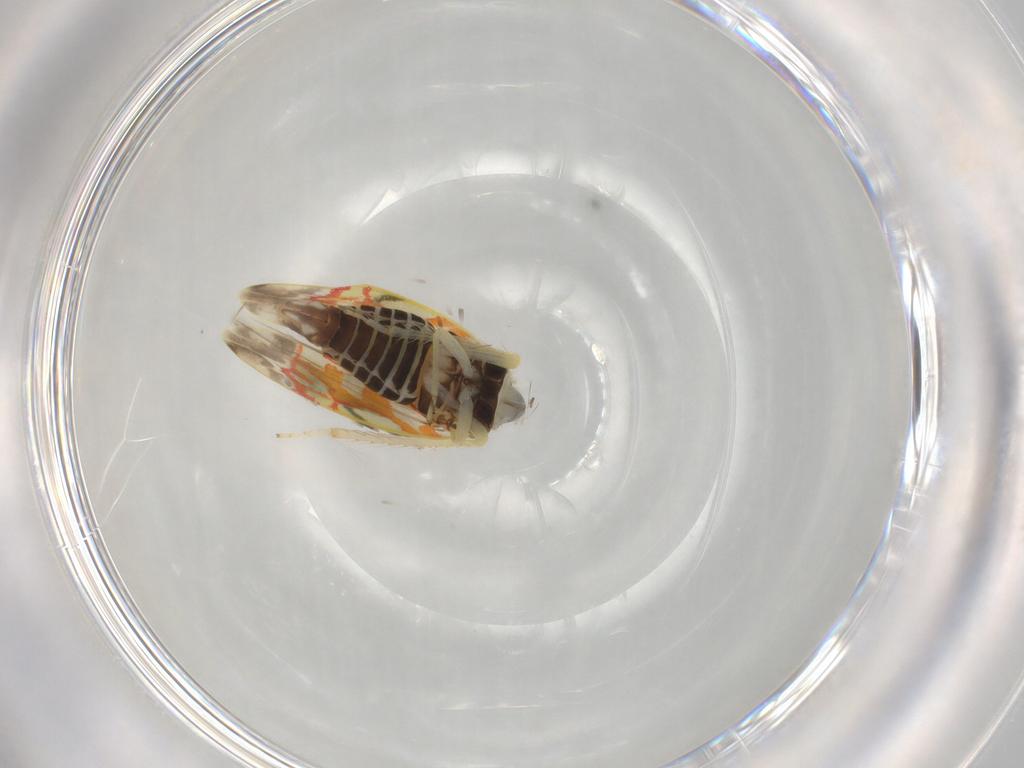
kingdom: Animalia
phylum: Arthropoda
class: Insecta
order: Hemiptera
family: Cicadellidae
